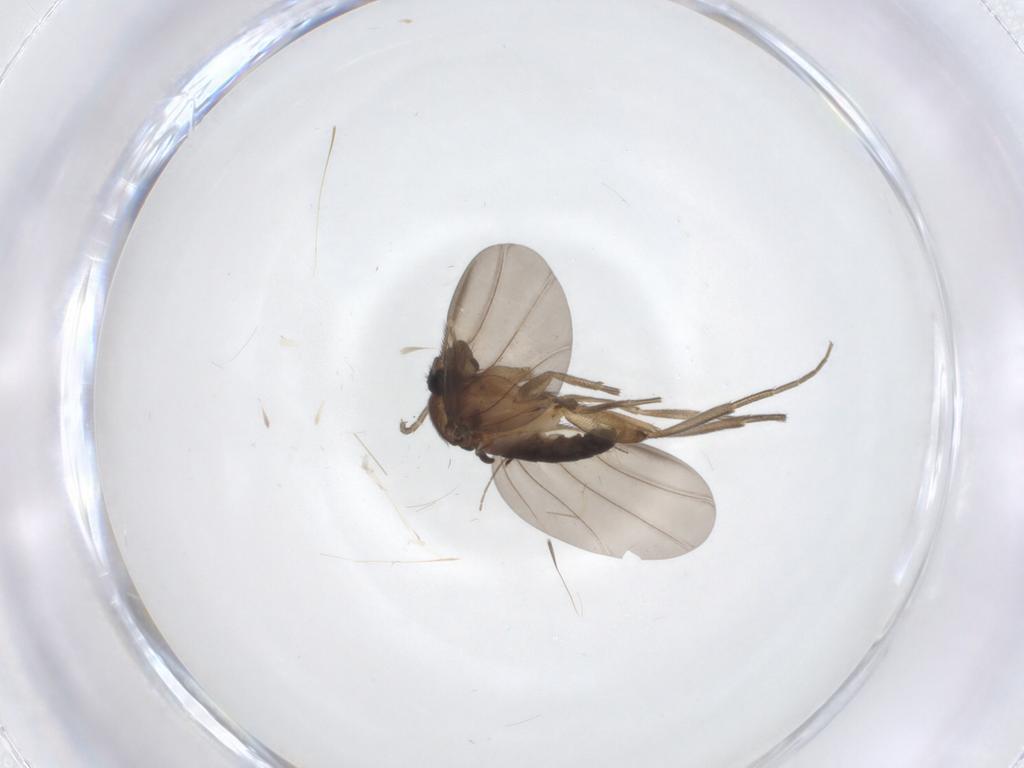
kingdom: Animalia
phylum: Arthropoda
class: Insecta
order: Diptera
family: Phoridae
